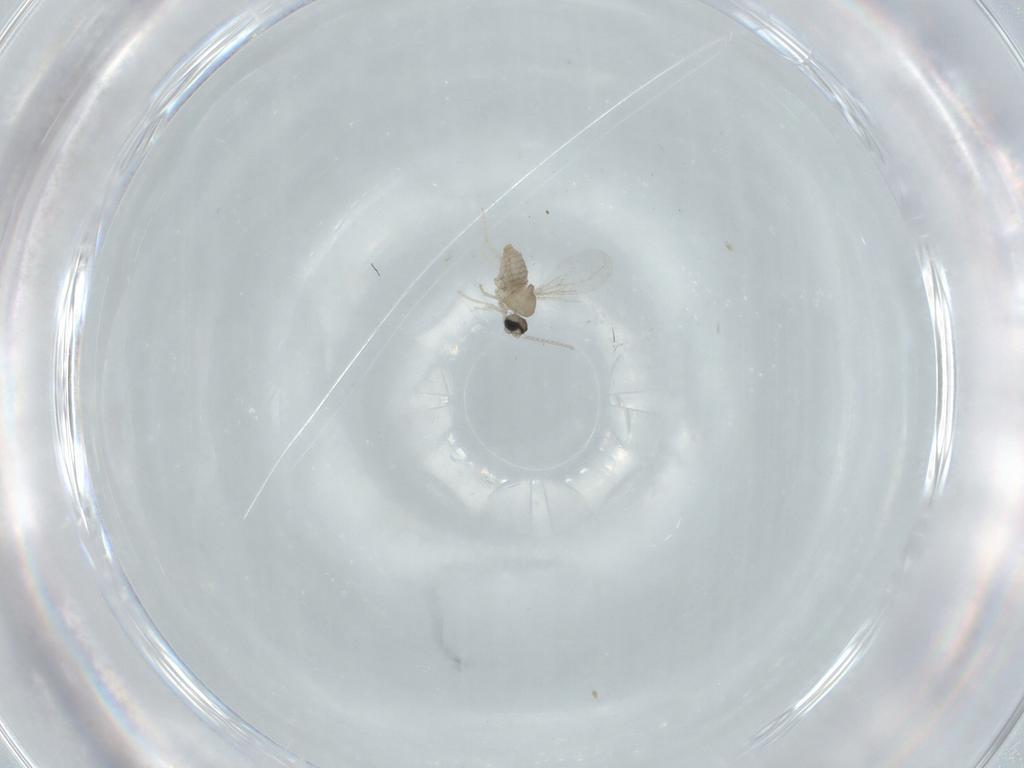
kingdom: Animalia
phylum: Arthropoda
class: Insecta
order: Diptera
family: Cecidomyiidae
